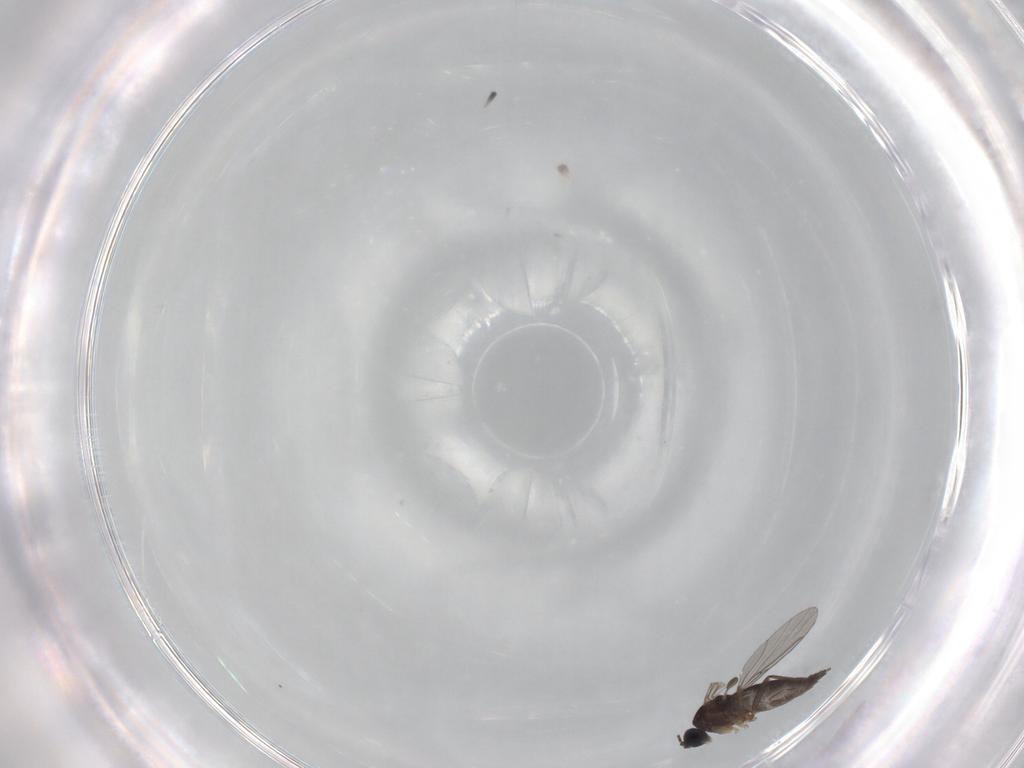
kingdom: Animalia
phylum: Arthropoda
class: Insecta
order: Diptera
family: Sciaridae
